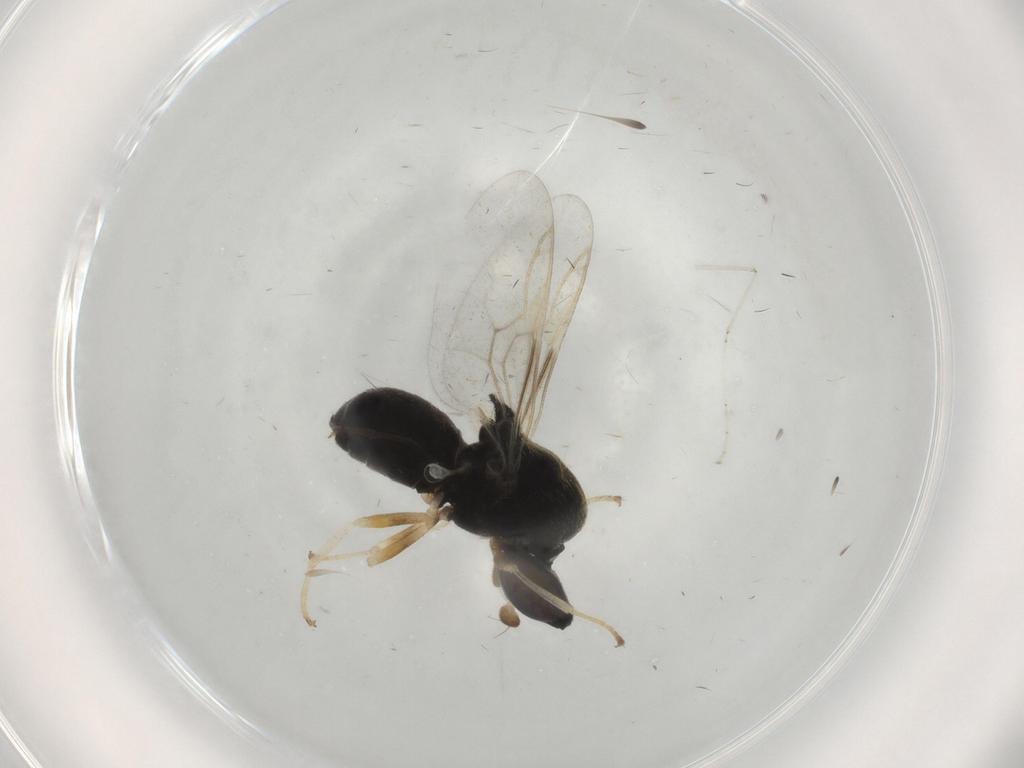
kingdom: Animalia
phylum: Arthropoda
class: Insecta
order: Diptera
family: Stratiomyidae
